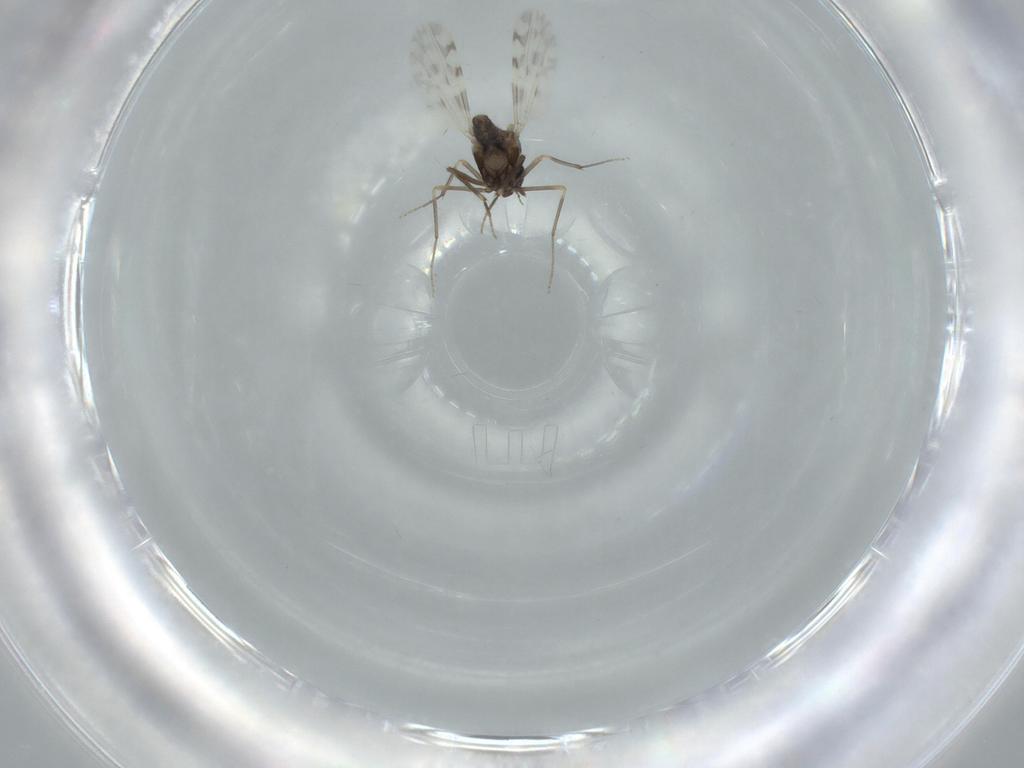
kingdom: Animalia
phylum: Arthropoda
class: Insecta
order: Diptera
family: Ceratopogonidae
